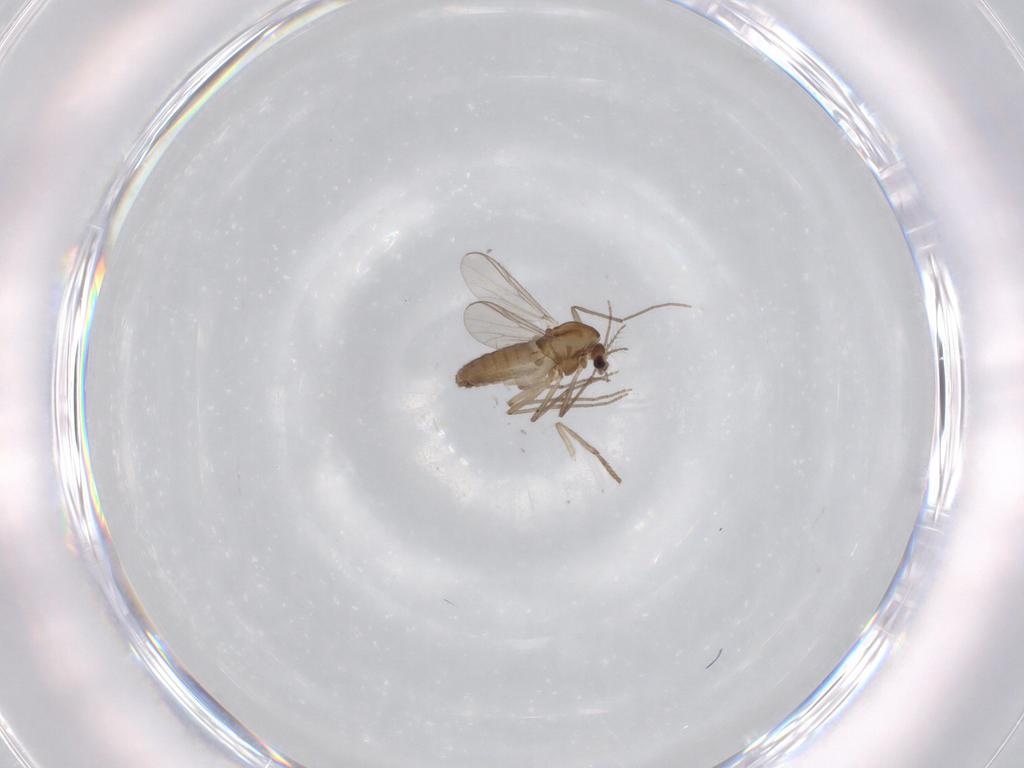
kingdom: Animalia
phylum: Arthropoda
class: Insecta
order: Diptera
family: Chironomidae
